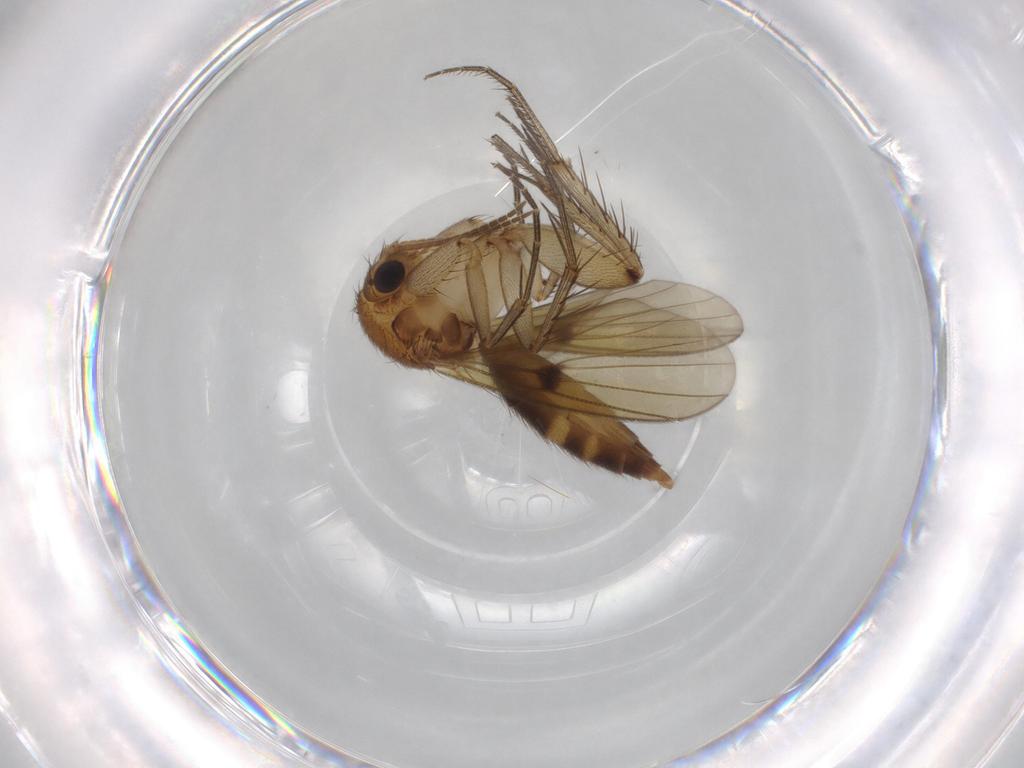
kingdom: Animalia
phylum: Arthropoda
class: Insecta
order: Diptera
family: Mycetophilidae
